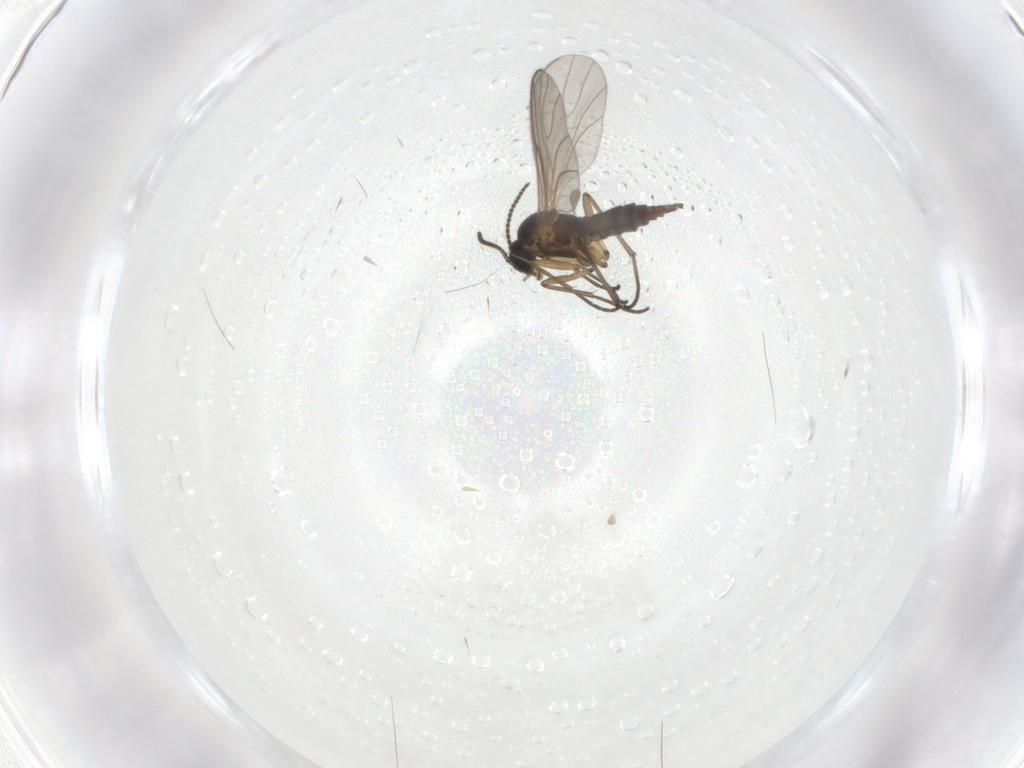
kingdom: Animalia
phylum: Arthropoda
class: Insecta
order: Diptera
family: Sciaridae
